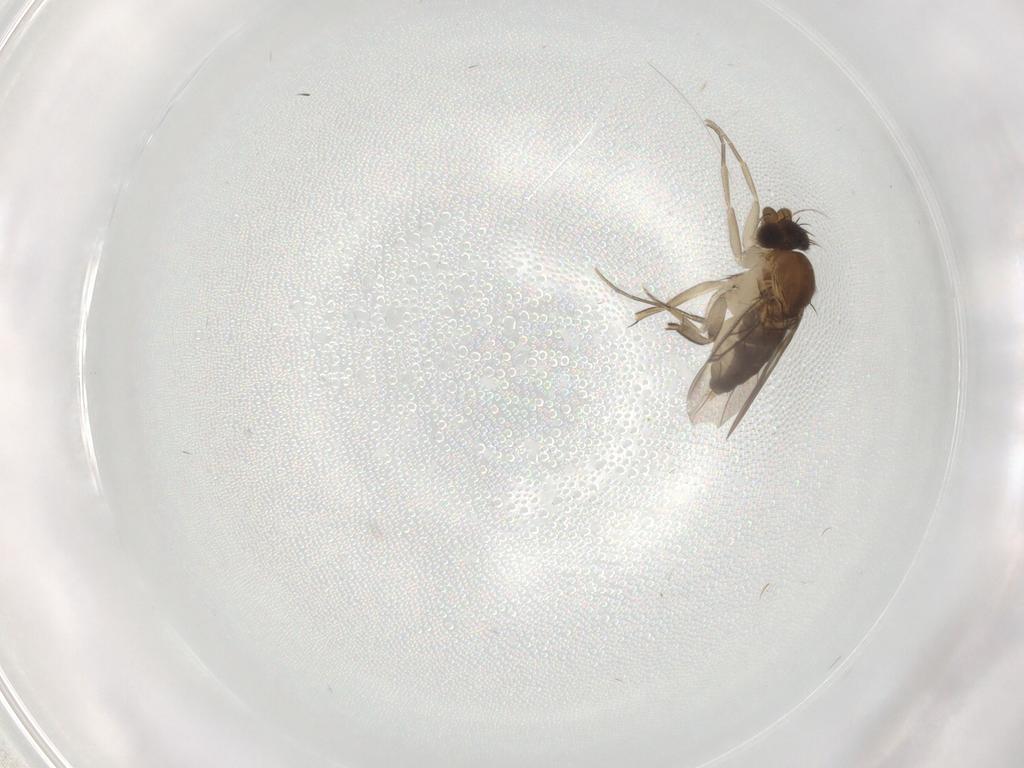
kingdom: Animalia
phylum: Arthropoda
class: Insecta
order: Diptera
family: Phoridae
